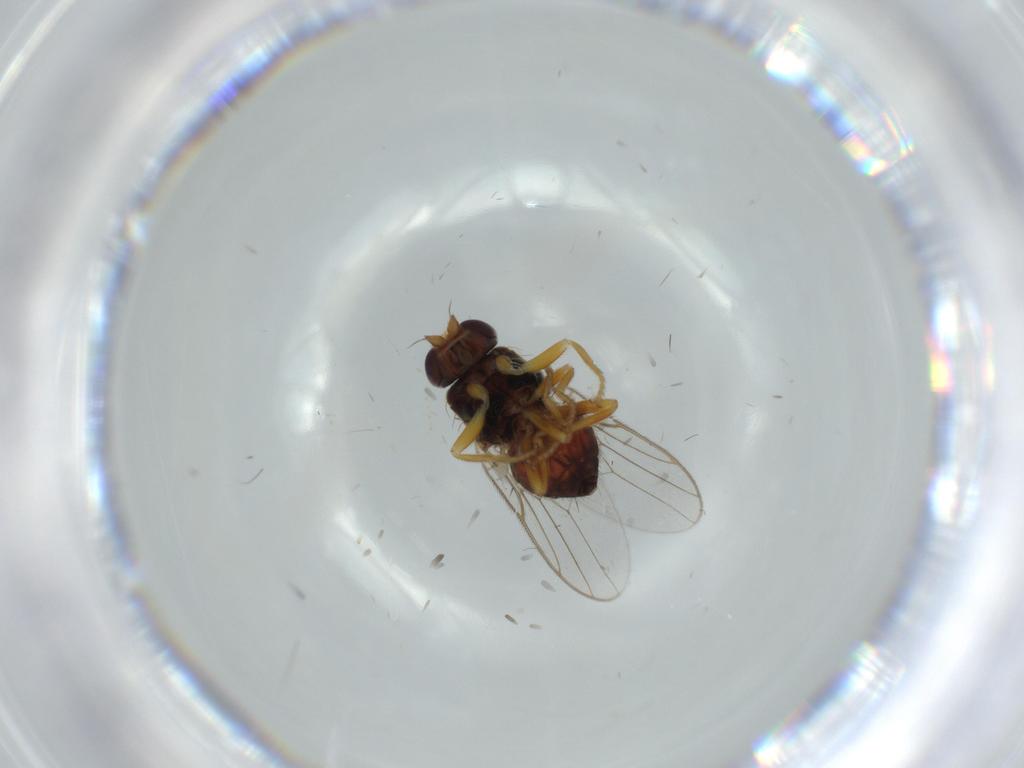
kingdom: Animalia
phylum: Arthropoda
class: Insecta
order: Diptera
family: Chloropidae
